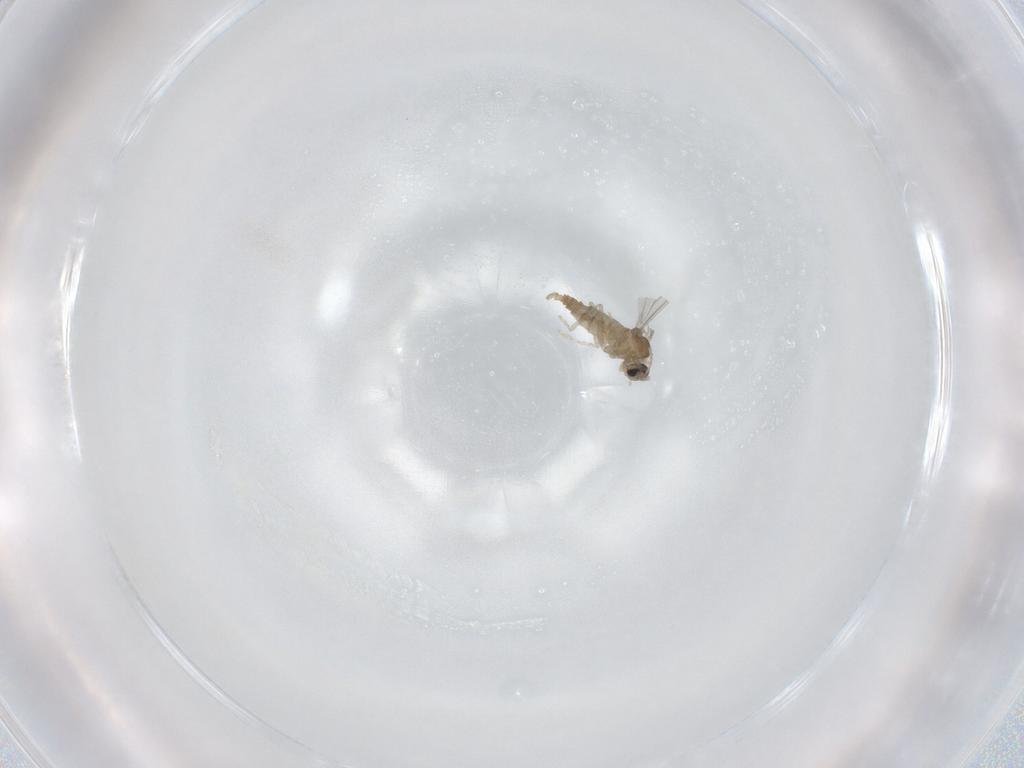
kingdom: Animalia
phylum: Arthropoda
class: Insecta
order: Diptera
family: Cecidomyiidae
